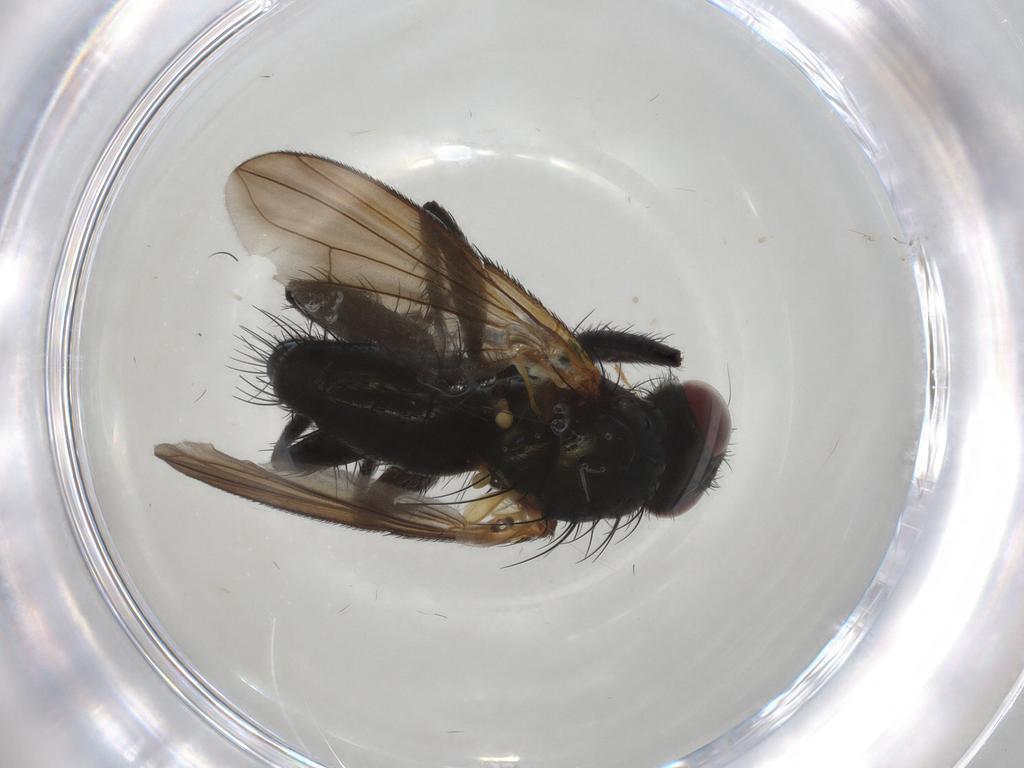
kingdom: Animalia
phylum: Arthropoda
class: Insecta
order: Diptera
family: Calliphoridae
